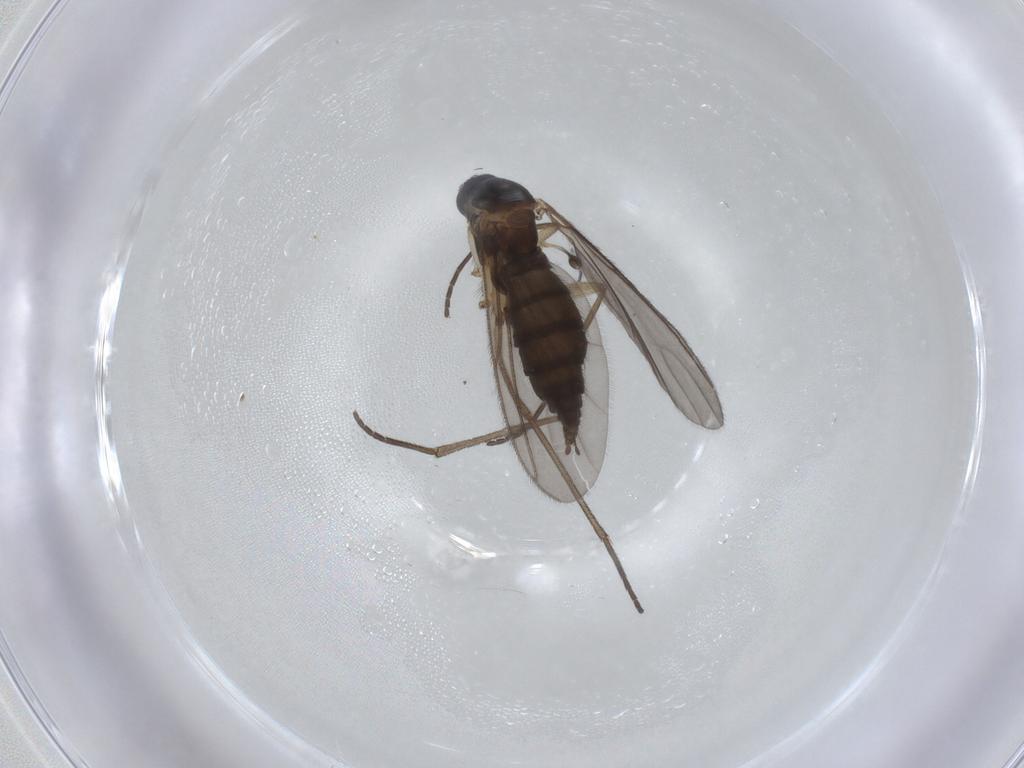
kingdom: Animalia
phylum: Arthropoda
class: Insecta
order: Diptera
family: Sciaridae
